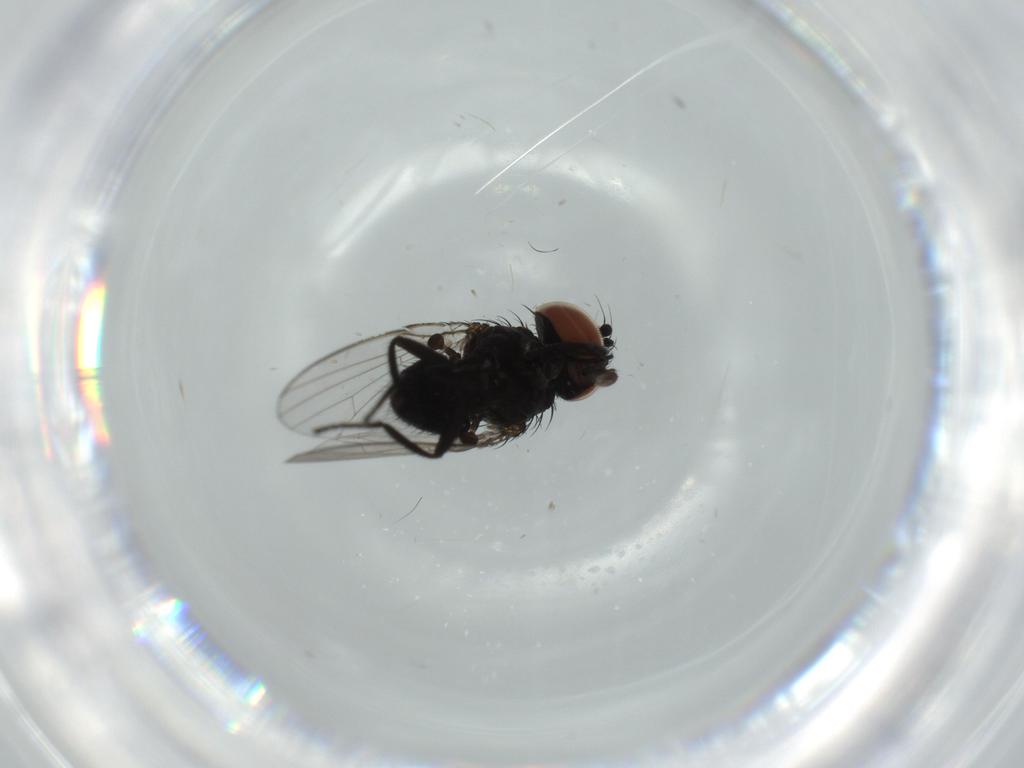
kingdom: Animalia
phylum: Arthropoda
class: Insecta
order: Diptera
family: Milichiidae
